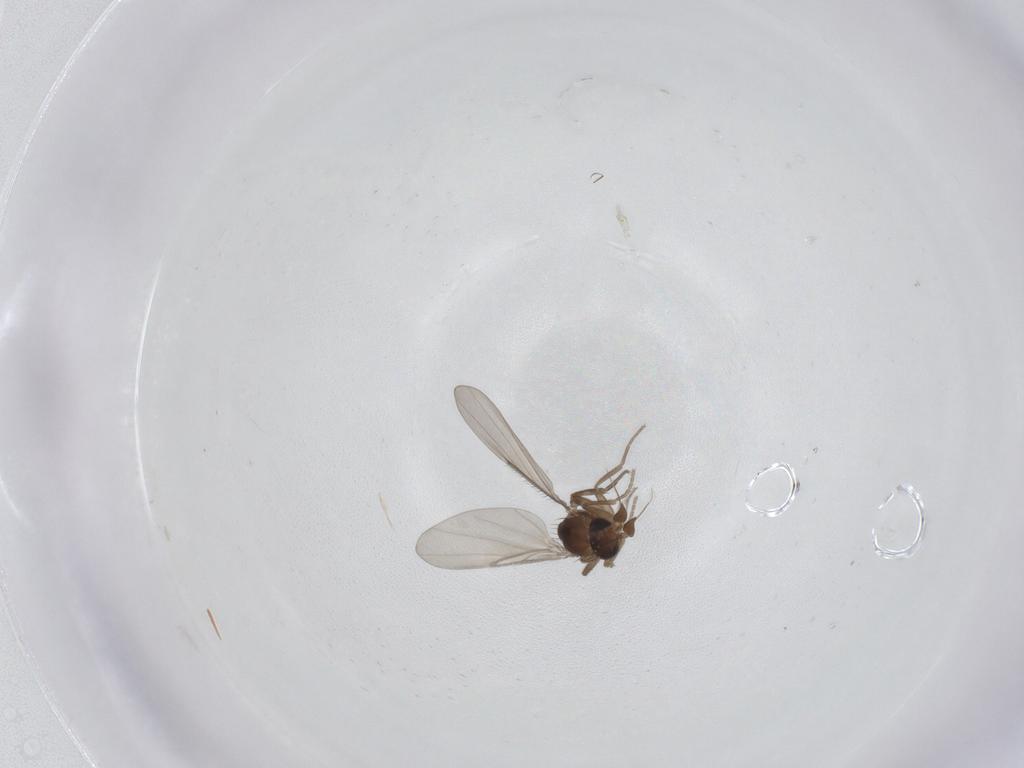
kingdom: Animalia
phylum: Arthropoda
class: Insecta
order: Diptera
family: Phoridae
